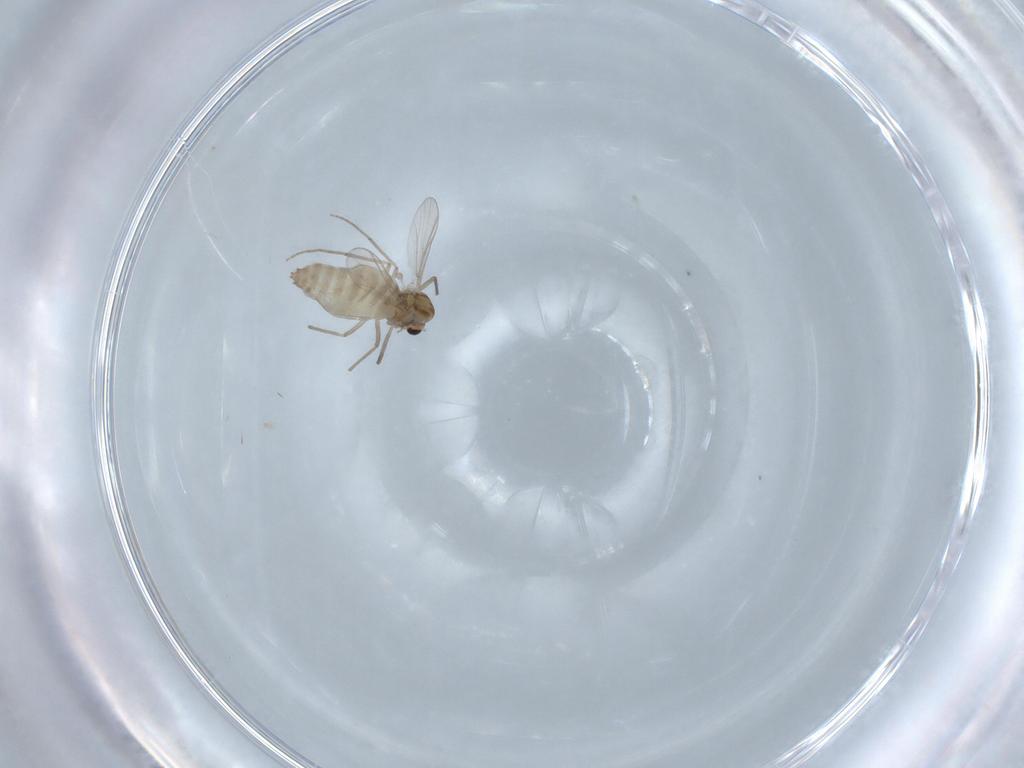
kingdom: Animalia
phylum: Arthropoda
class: Insecta
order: Diptera
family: Chironomidae
